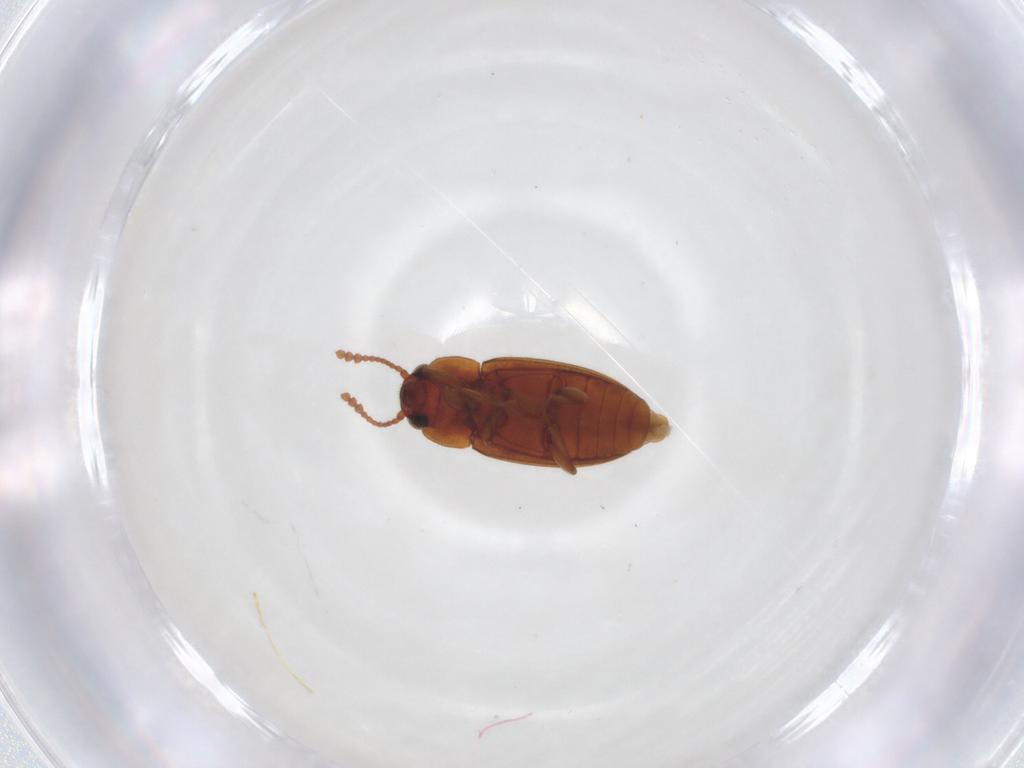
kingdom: Animalia
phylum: Arthropoda
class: Insecta
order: Coleoptera
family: Erotylidae
